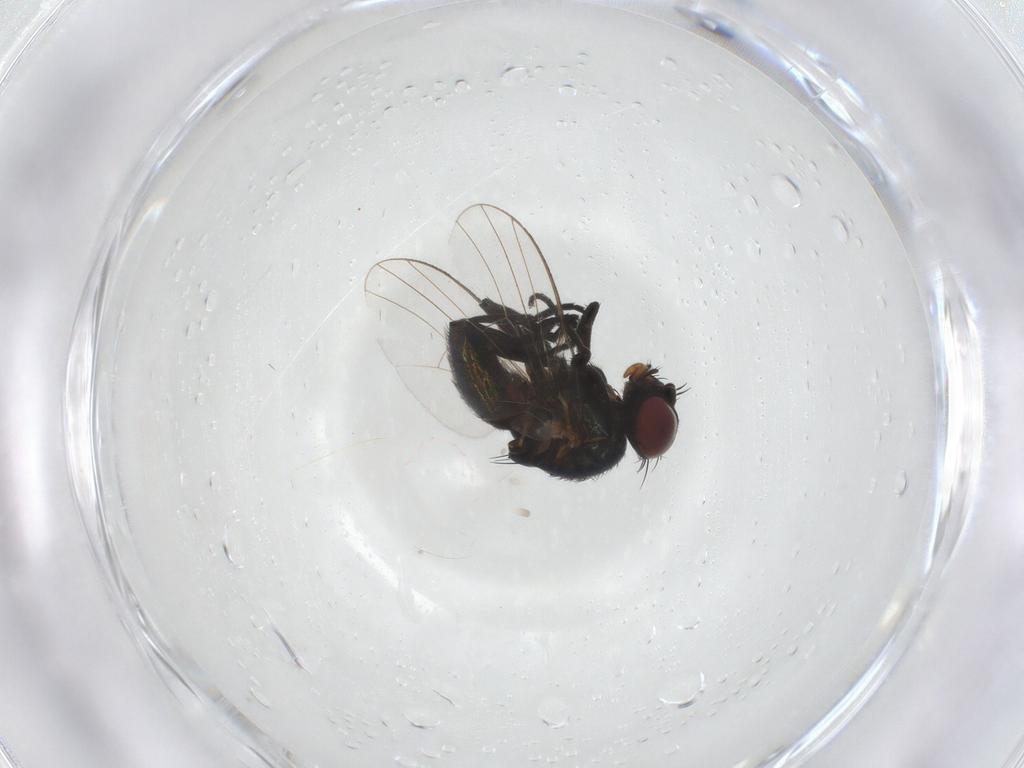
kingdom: Animalia
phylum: Arthropoda
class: Insecta
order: Diptera
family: Agromyzidae
